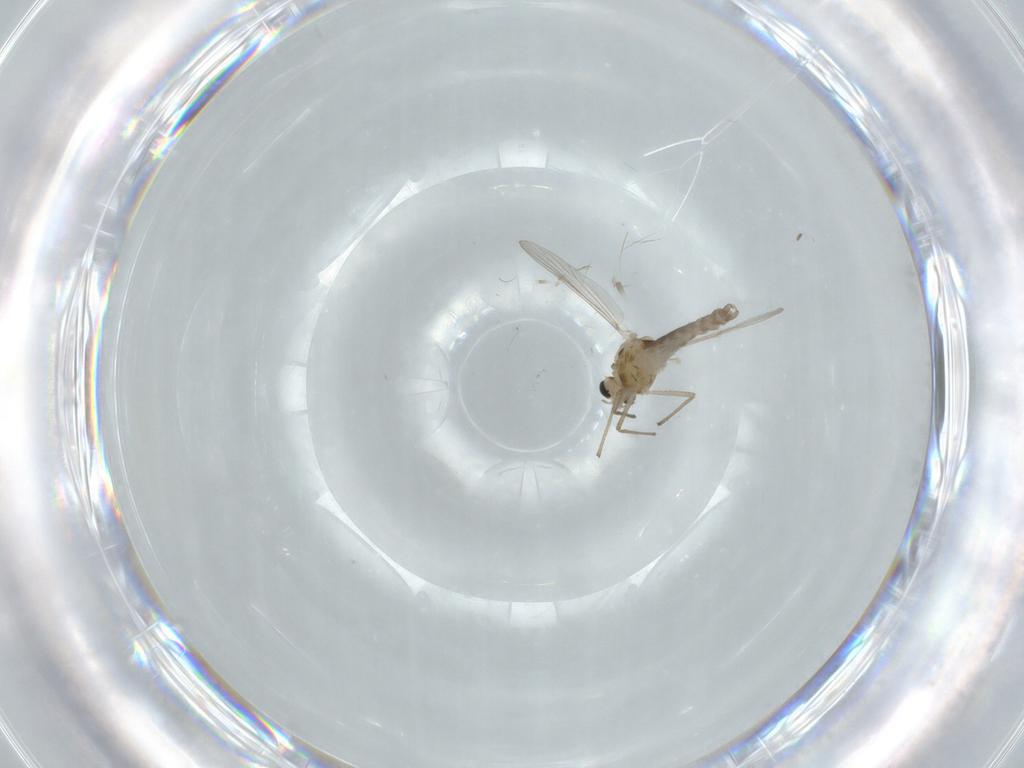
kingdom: Animalia
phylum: Arthropoda
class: Insecta
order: Diptera
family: Chironomidae
